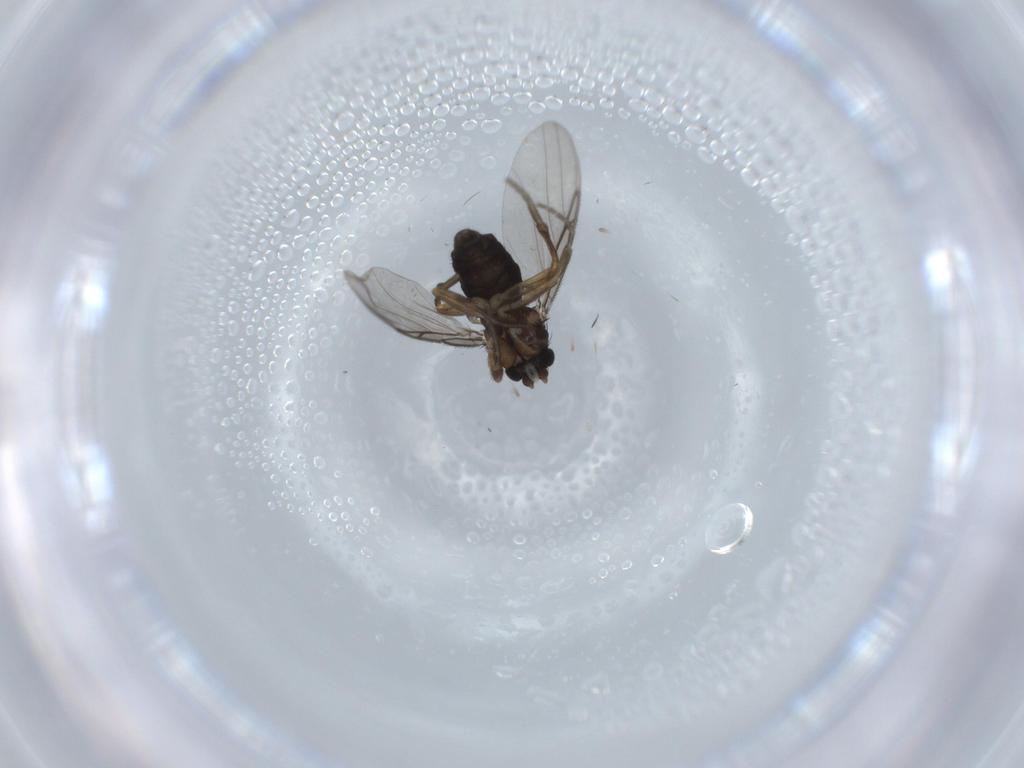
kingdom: Animalia
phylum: Arthropoda
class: Insecta
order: Diptera
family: Phoridae
